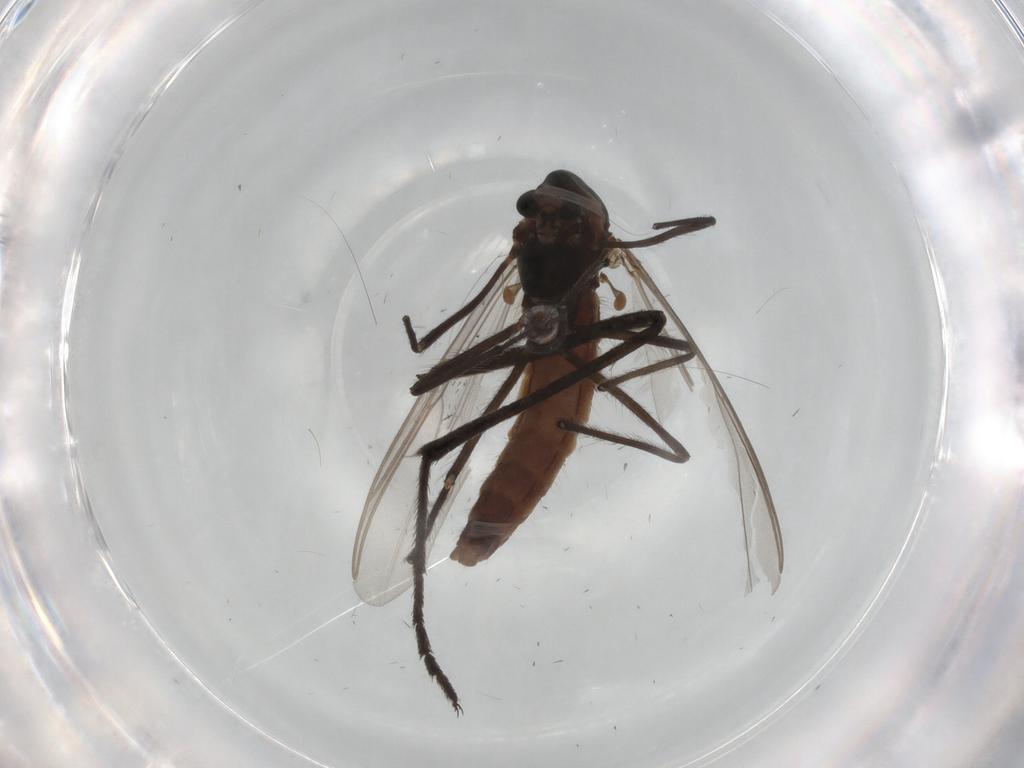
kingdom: Animalia
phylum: Arthropoda
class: Insecta
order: Diptera
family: Chironomidae
